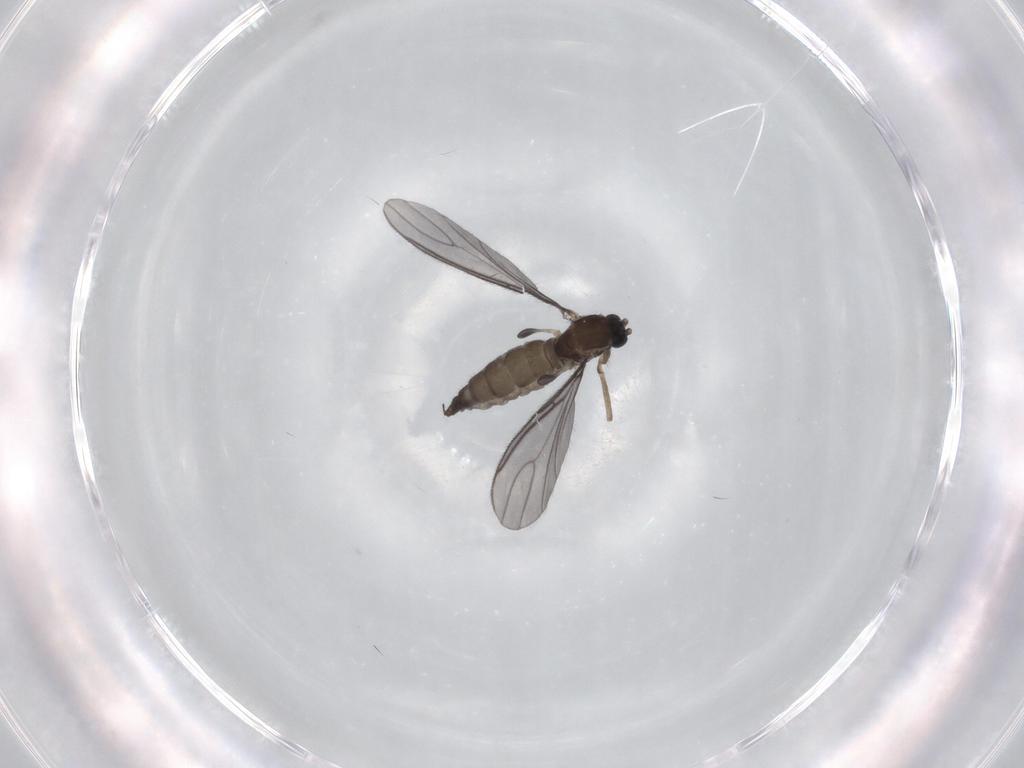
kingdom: Animalia
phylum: Arthropoda
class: Insecta
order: Diptera
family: Sciaridae
